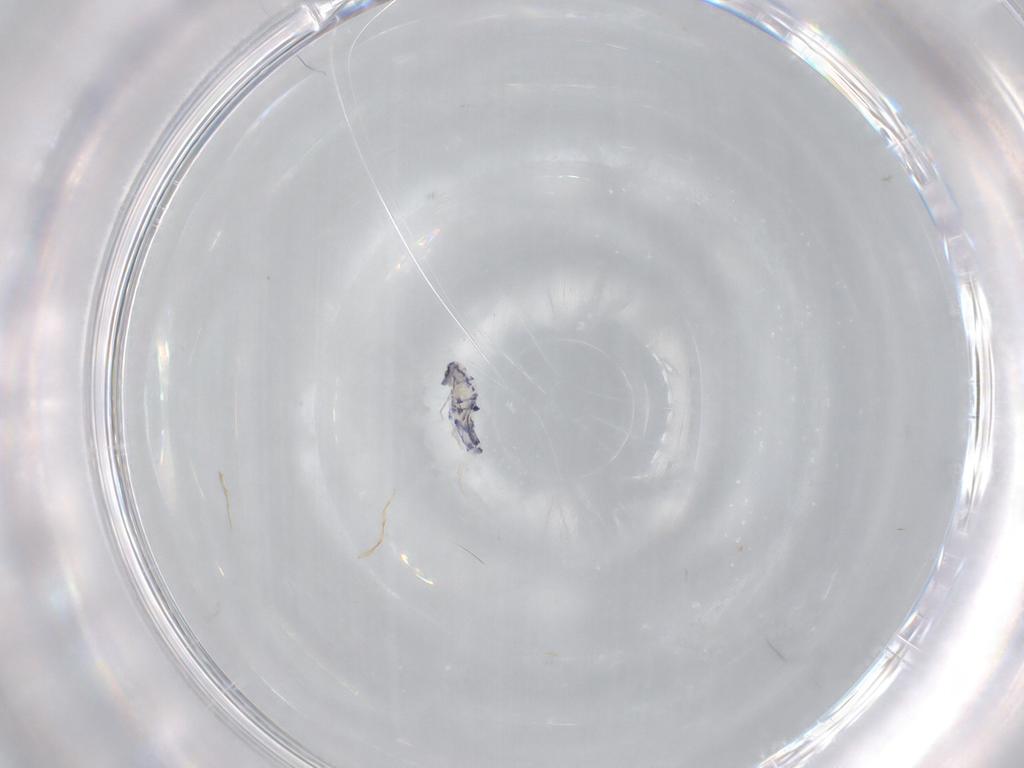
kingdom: Animalia
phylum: Arthropoda
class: Collembola
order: Entomobryomorpha
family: Entomobryidae
